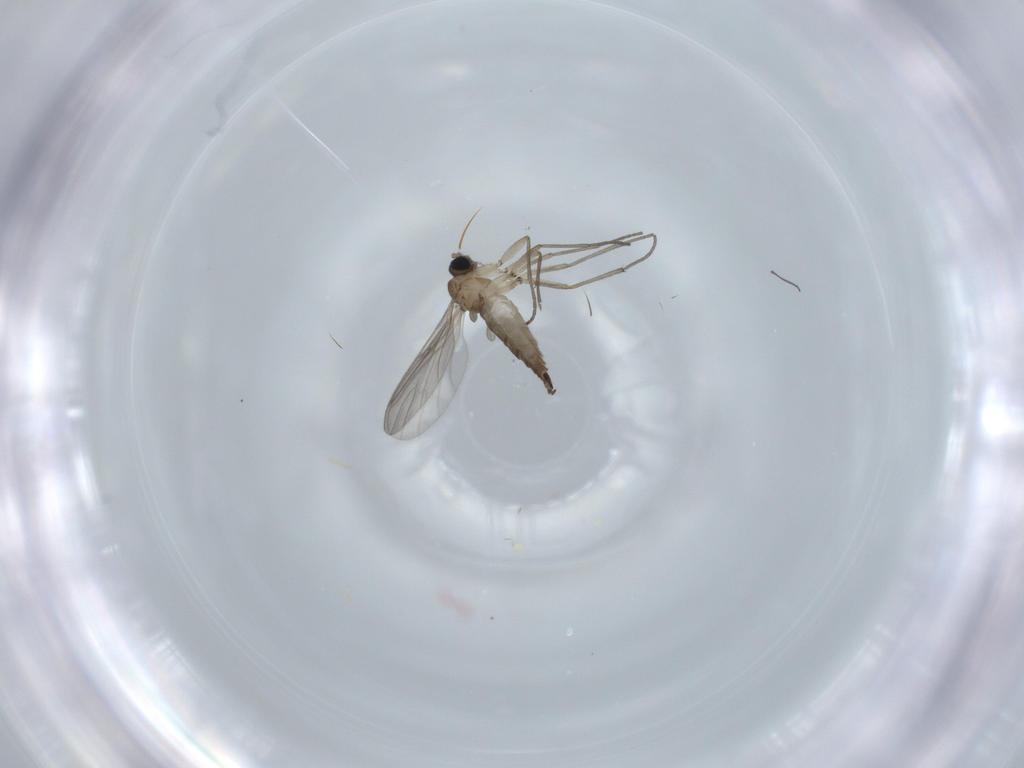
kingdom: Animalia
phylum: Arthropoda
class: Insecta
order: Diptera
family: Sciaridae
